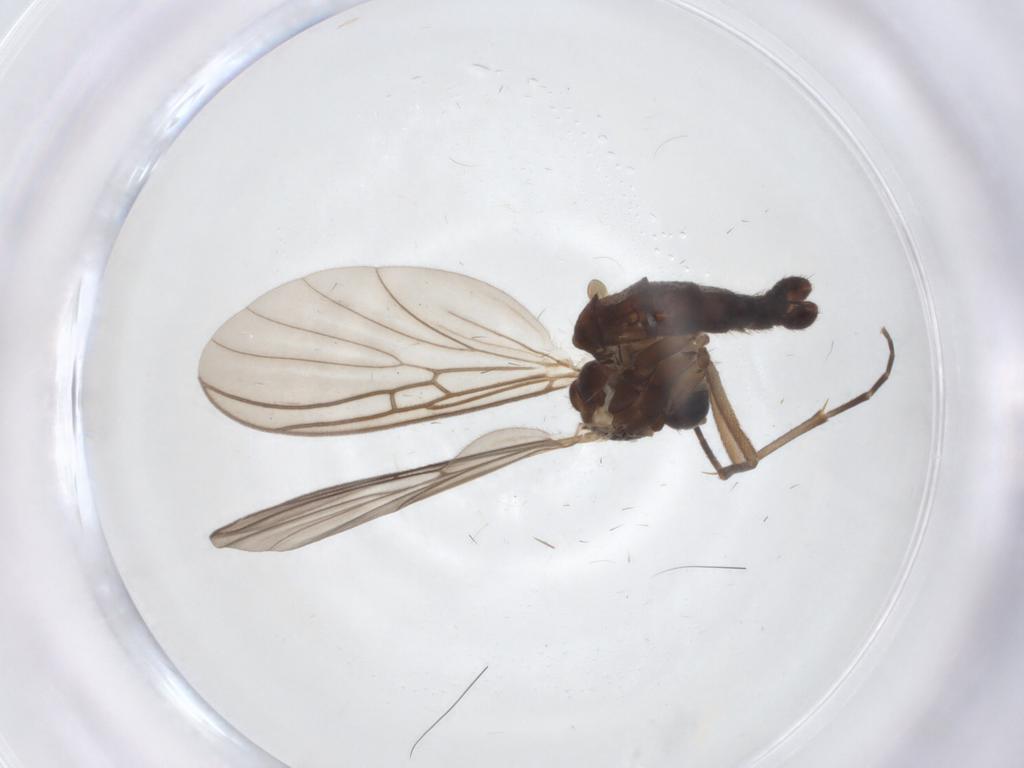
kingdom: Animalia
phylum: Arthropoda
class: Insecta
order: Diptera
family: Mycetophilidae
